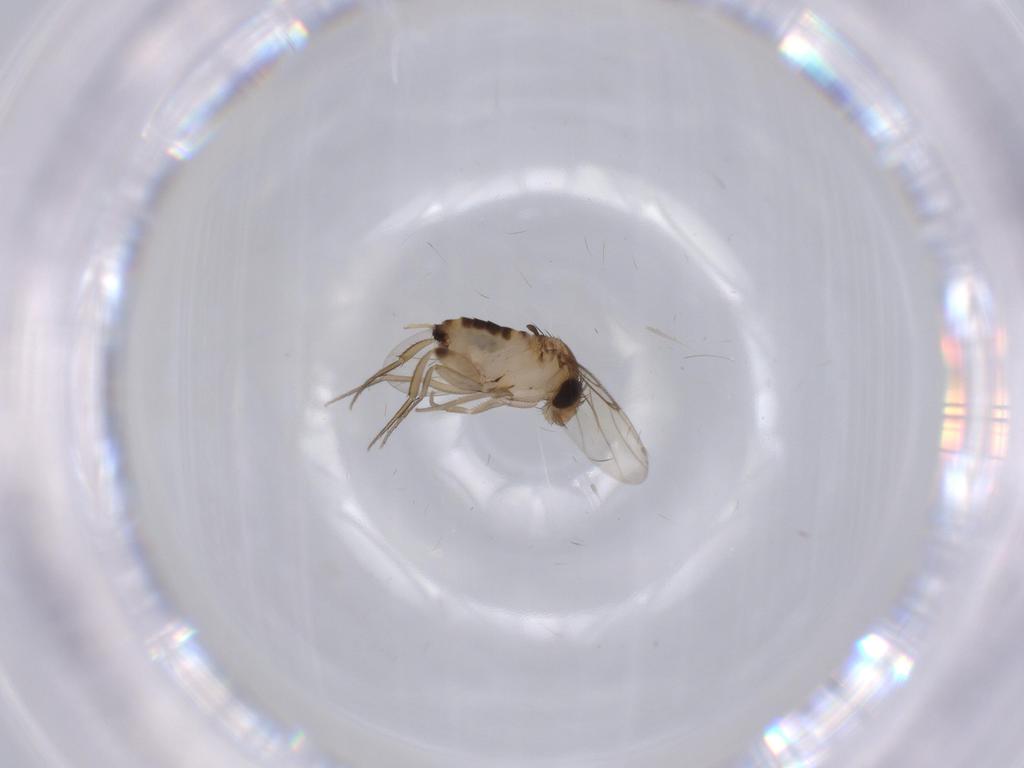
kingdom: Animalia
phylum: Arthropoda
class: Insecta
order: Diptera
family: Phoridae
